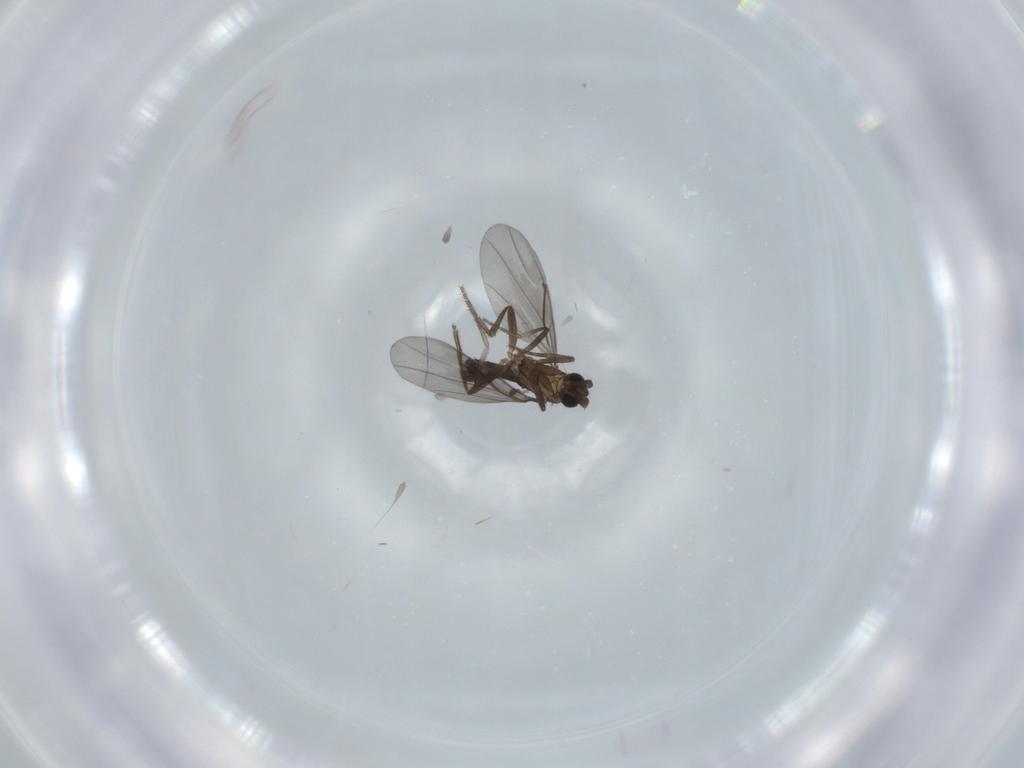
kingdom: Animalia
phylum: Arthropoda
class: Insecta
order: Diptera
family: Phoridae
